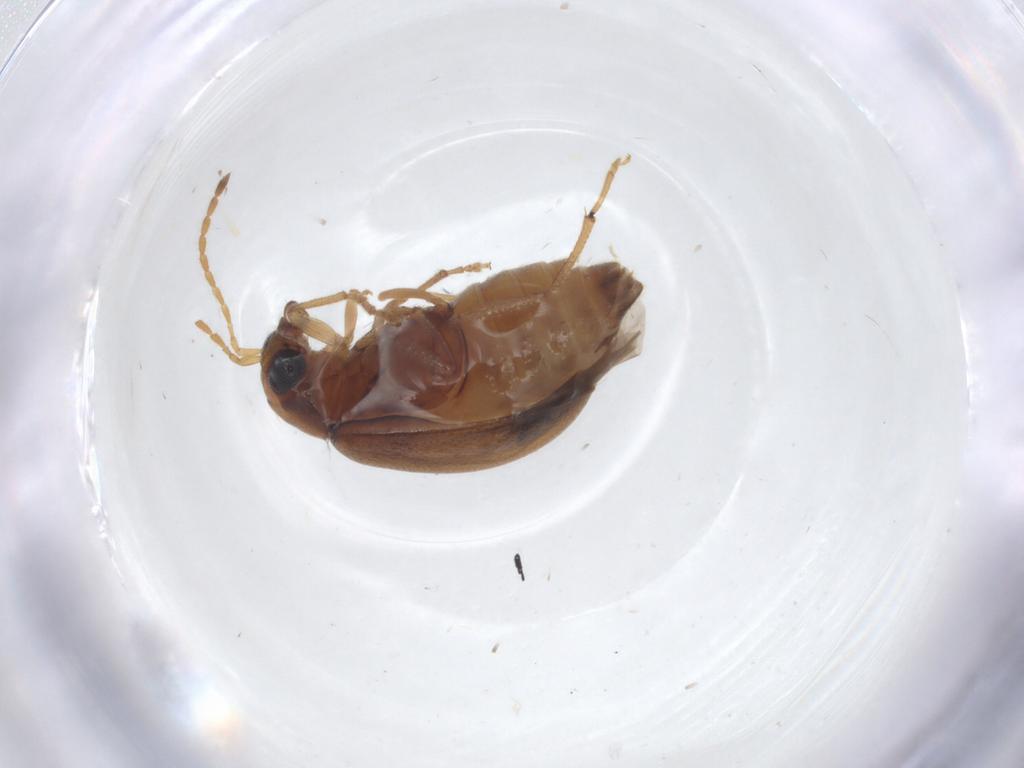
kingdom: Animalia
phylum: Arthropoda
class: Insecta
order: Coleoptera
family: Chrysomelidae
